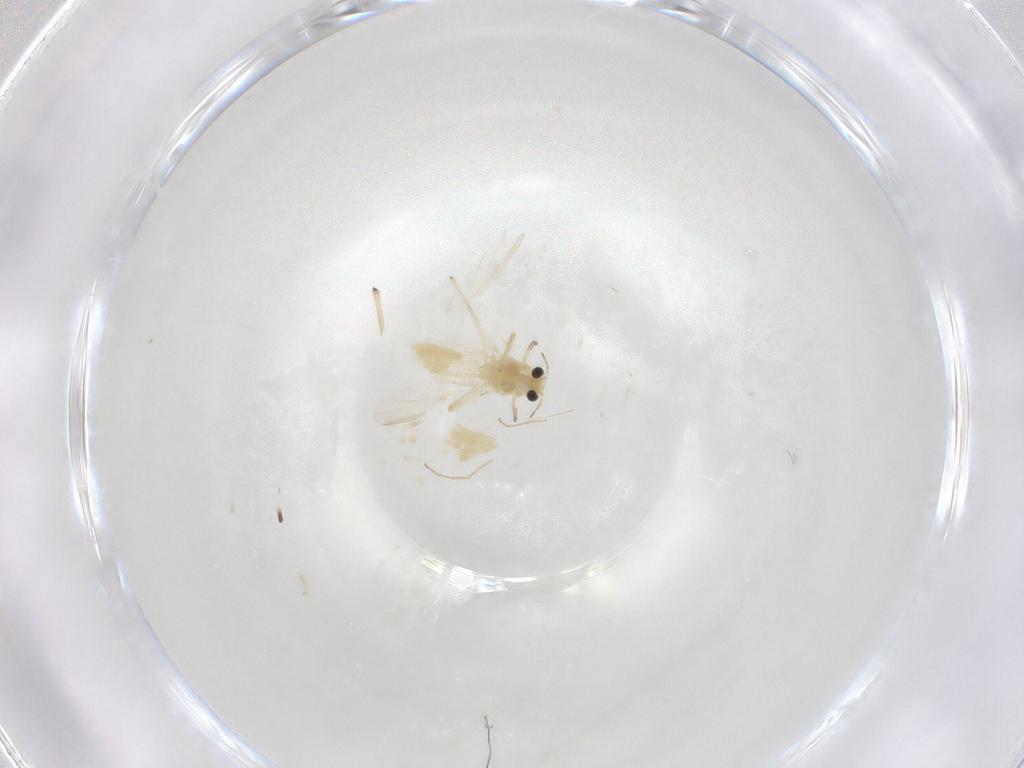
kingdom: Animalia
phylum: Arthropoda
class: Insecta
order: Diptera
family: Chironomidae
